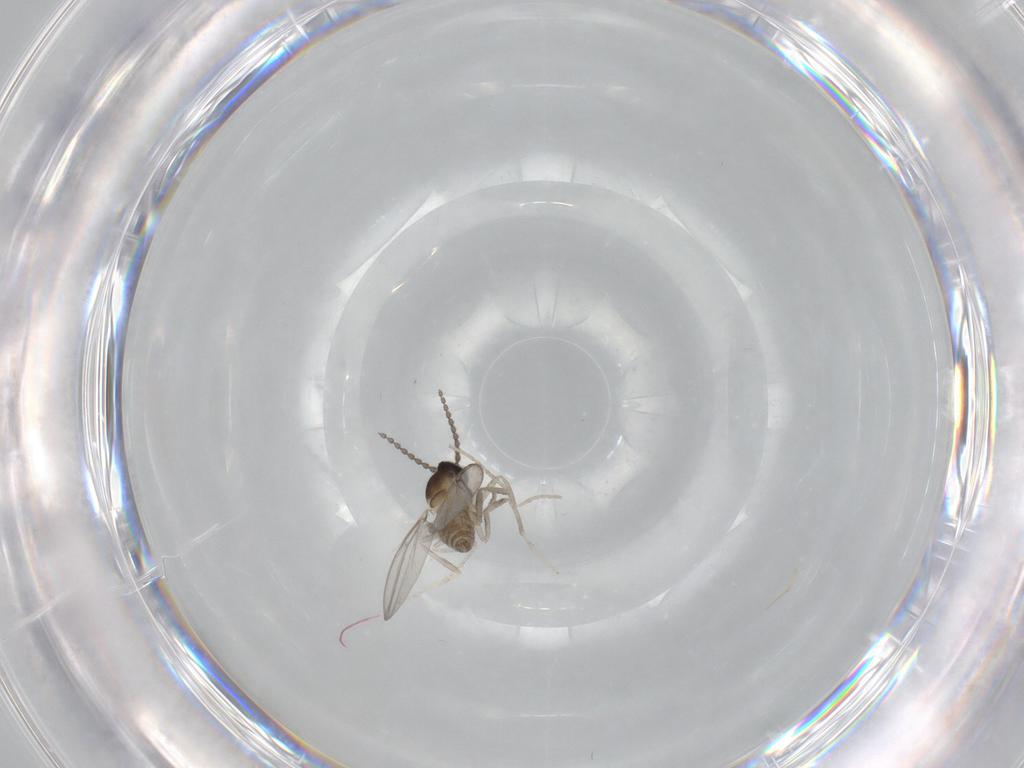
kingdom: Animalia
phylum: Arthropoda
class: Insecta
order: Diptera
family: Cecidomyiidae
